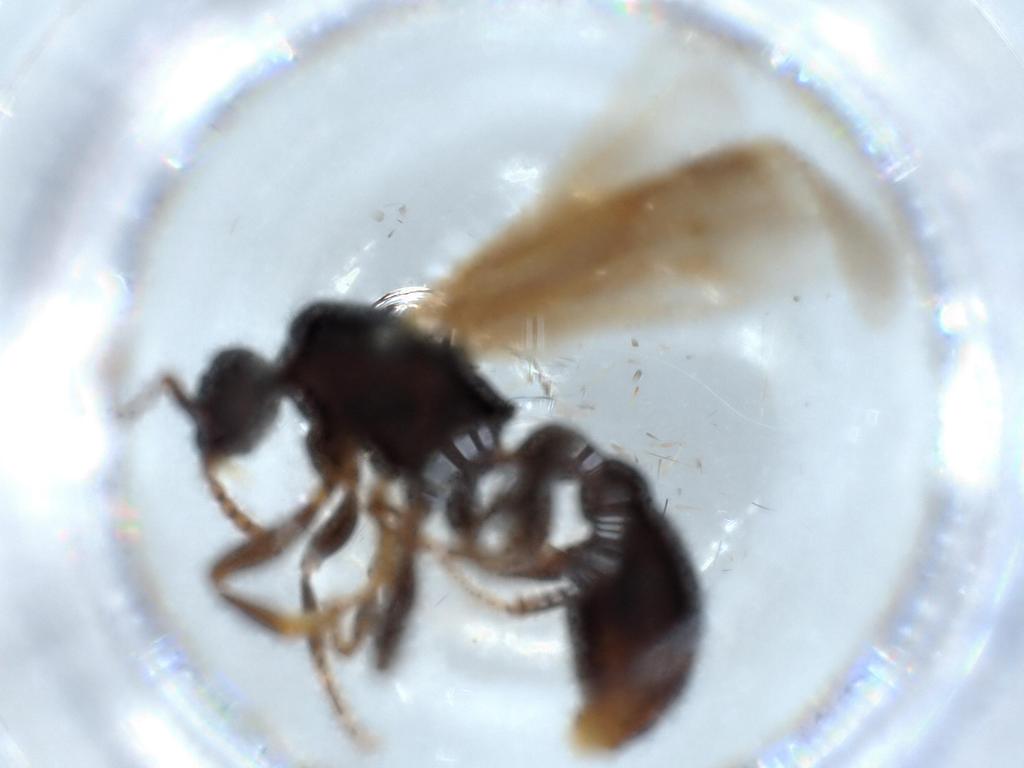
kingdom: Animalia
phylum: Arthropoda
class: Insecta
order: Hymenoptera
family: Formicidae
